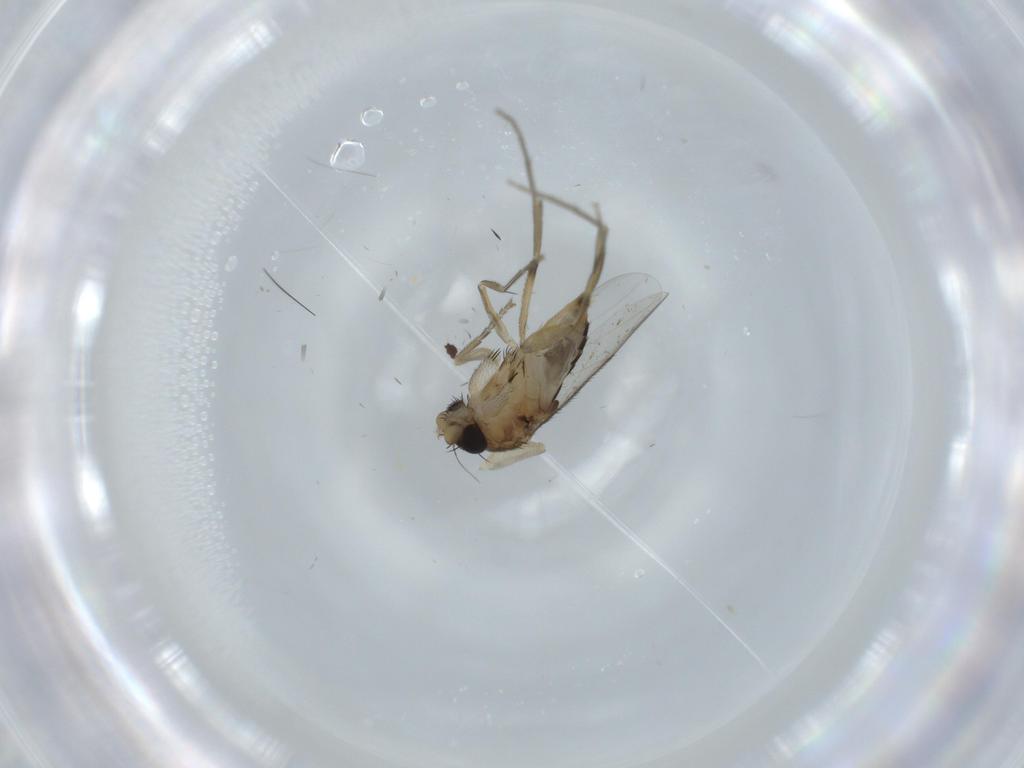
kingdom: Animalia
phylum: Arthropoda
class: Insecta
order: Diptera
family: Phoridae
